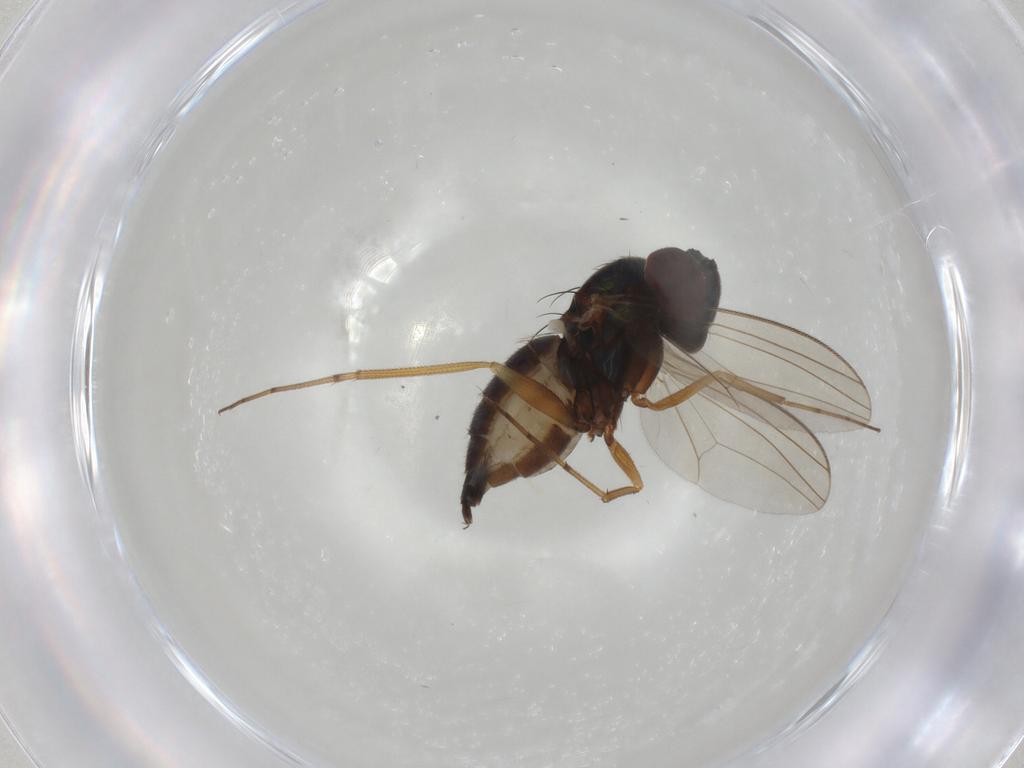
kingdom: Animalia
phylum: Arthropoda
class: Insecta
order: Diptera
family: Dolichopodidae
